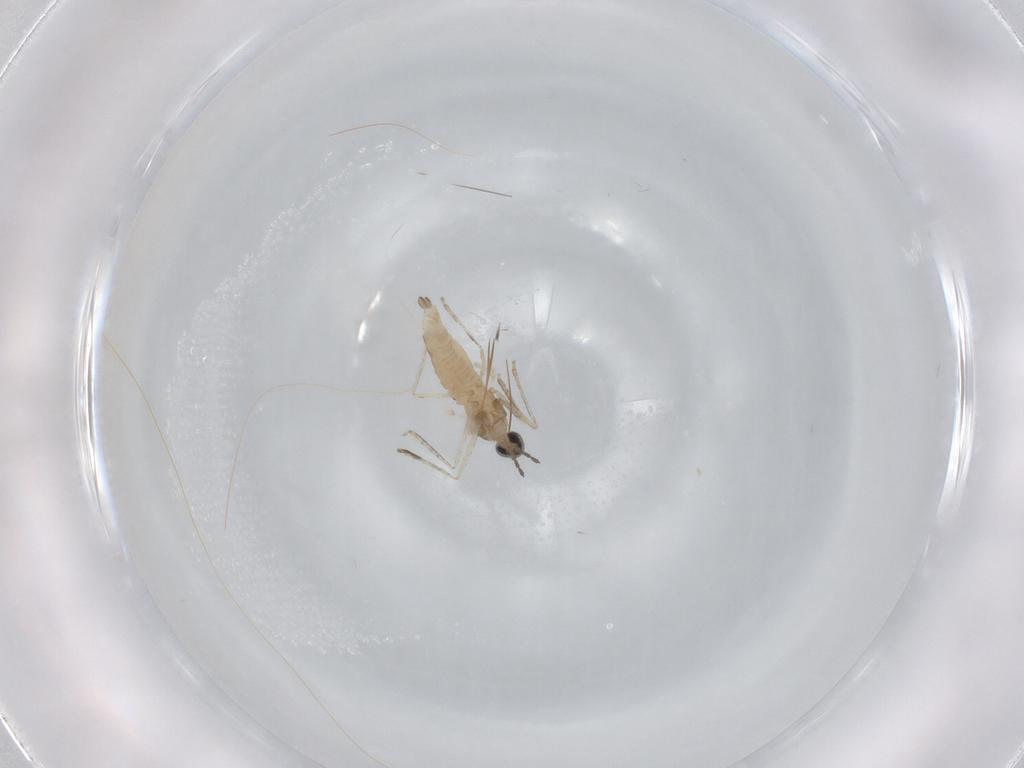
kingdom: Animalia
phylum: Arthropoda
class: Insecta
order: Diptera
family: Cecidomyiidae
